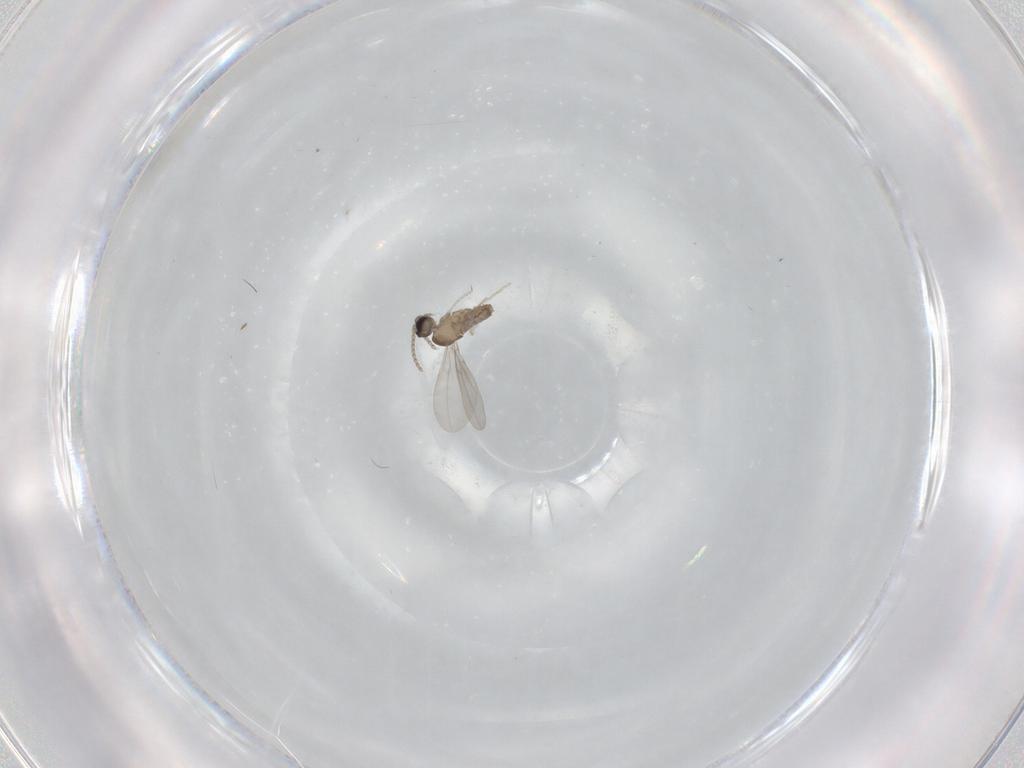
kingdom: Animalia
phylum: Arthropoda
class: Insecta
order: Diptera
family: Cecidomyiidae
